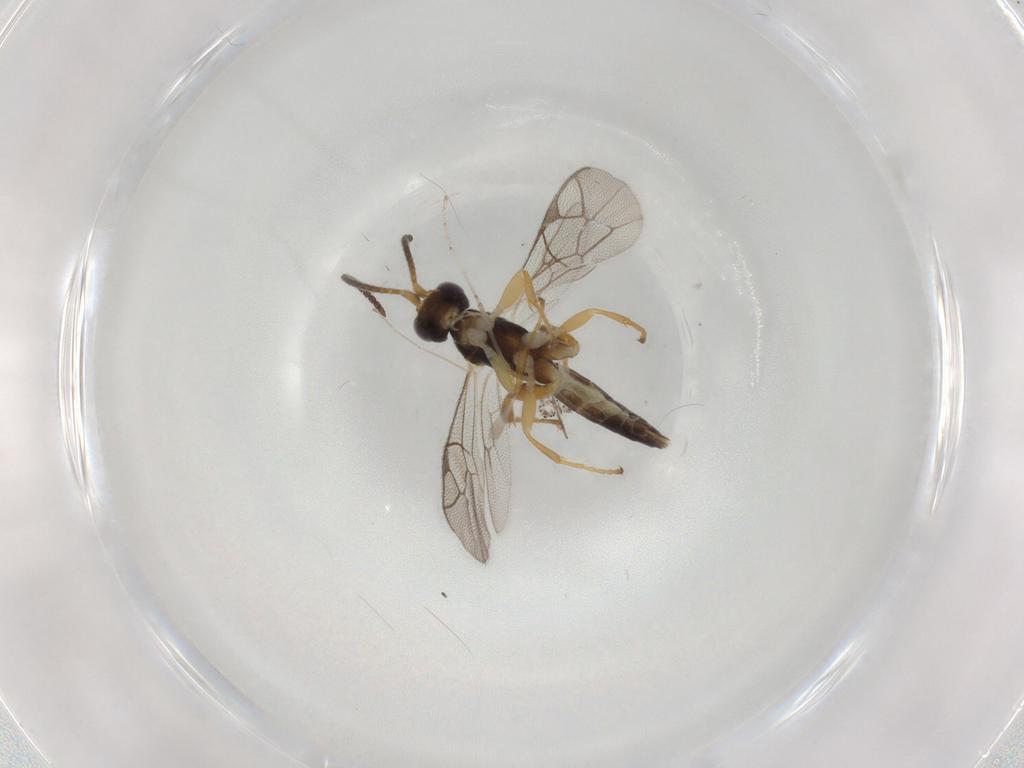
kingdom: Animalia
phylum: Arthropoda
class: Insecta
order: Hymenoptera
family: Ichneumonidae
